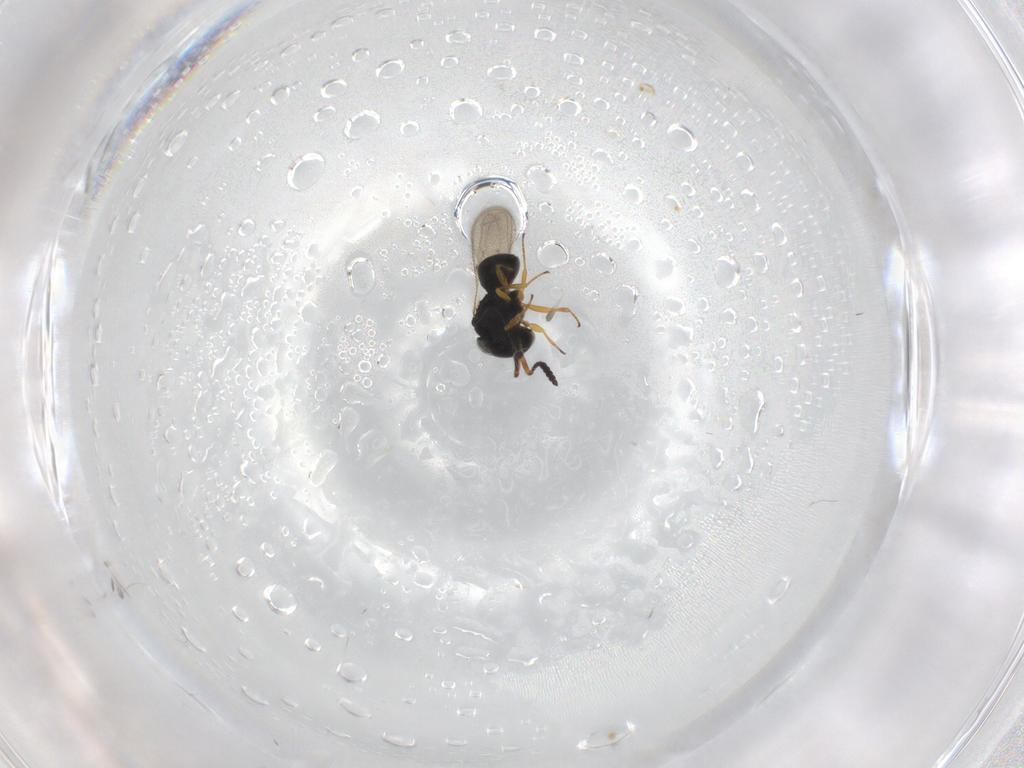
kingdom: Animalia
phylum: Arthropoda
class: Insecta
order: Hymenoptera
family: Scelionidae
